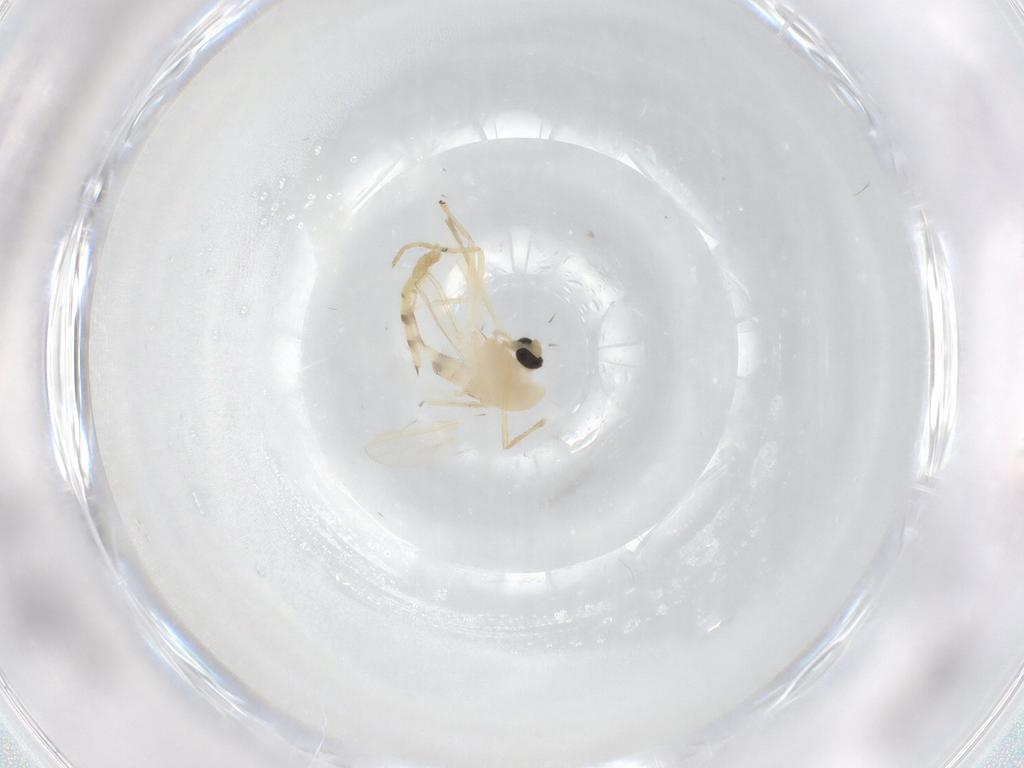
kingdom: Animalia
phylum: Arthropoda
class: Insecta
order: Diptera
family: Chironomidae
